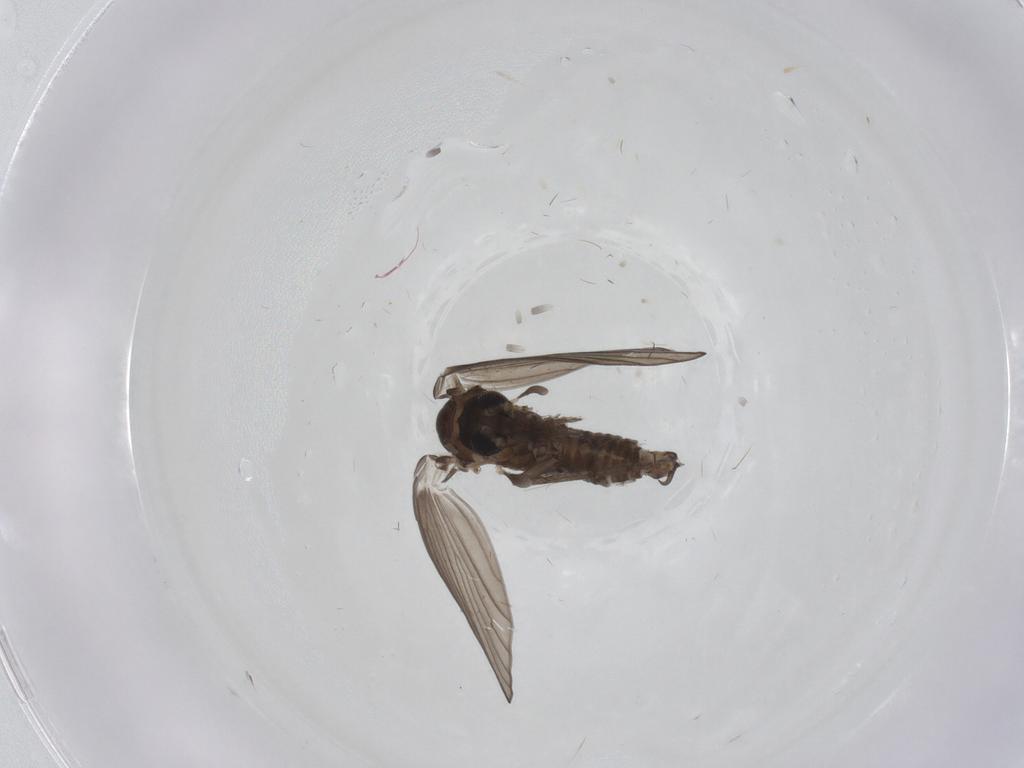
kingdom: Animalia
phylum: Arthropoda
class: Insecta
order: Diptera
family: Psychodidae
